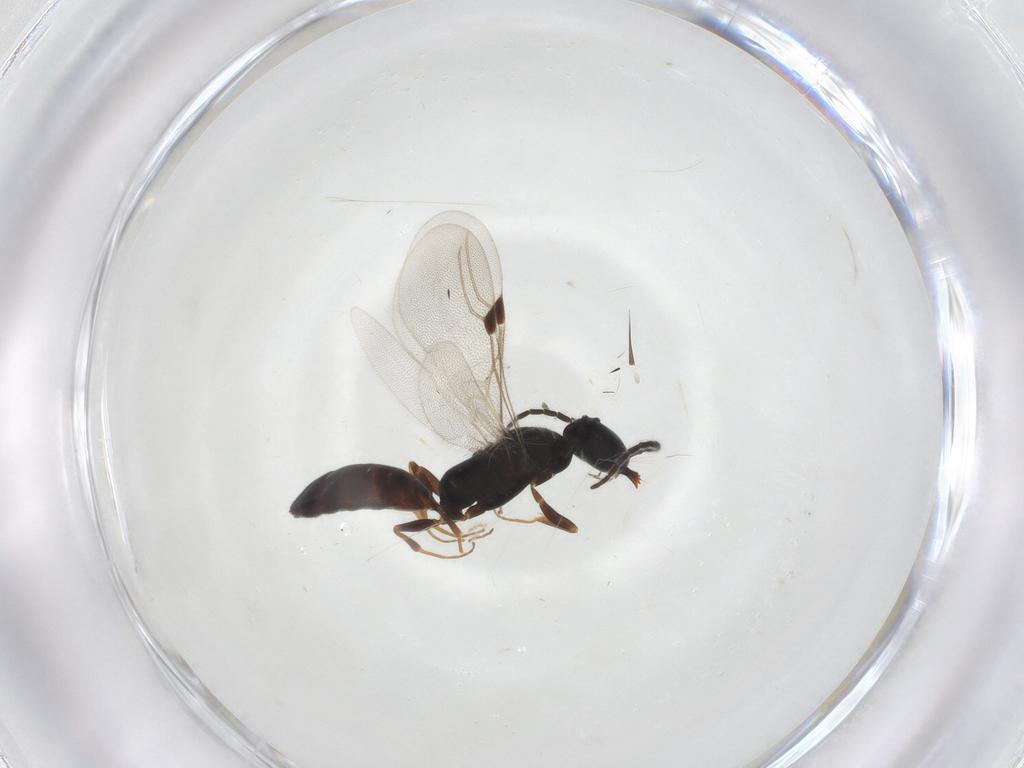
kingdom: Animalia
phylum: Arthropoda
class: Insecta
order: Hymenoptera
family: Bethylidae
